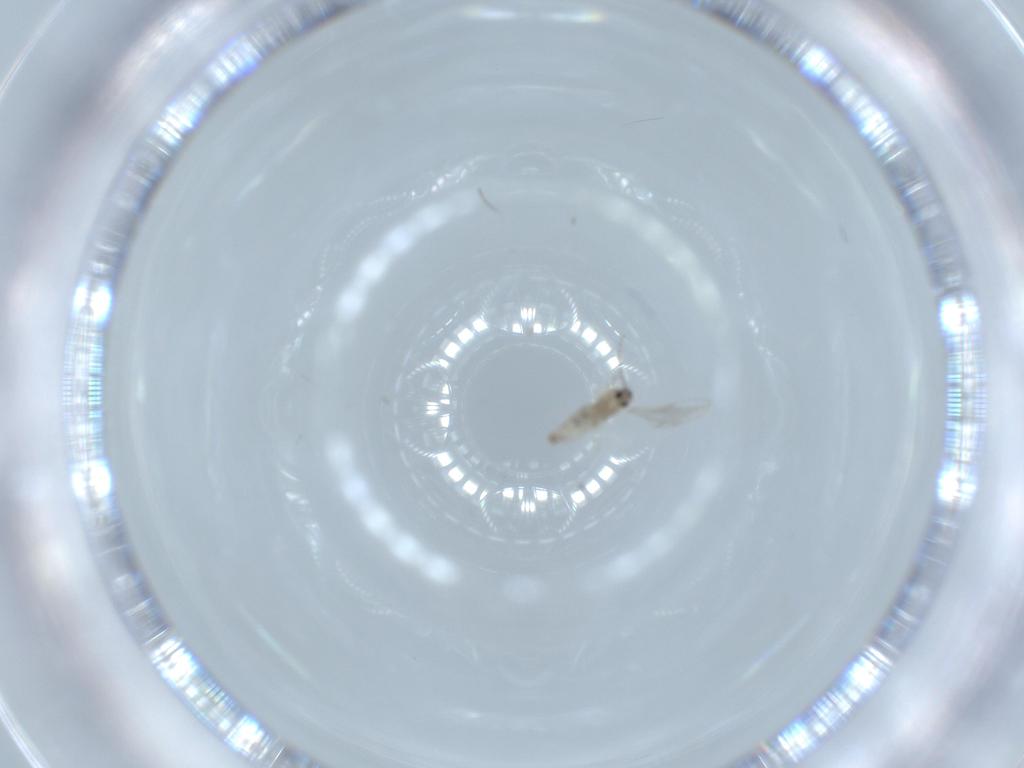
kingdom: Animalia
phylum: Arthropoda
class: Insecta
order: Diptera
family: Cecidomyiidae
